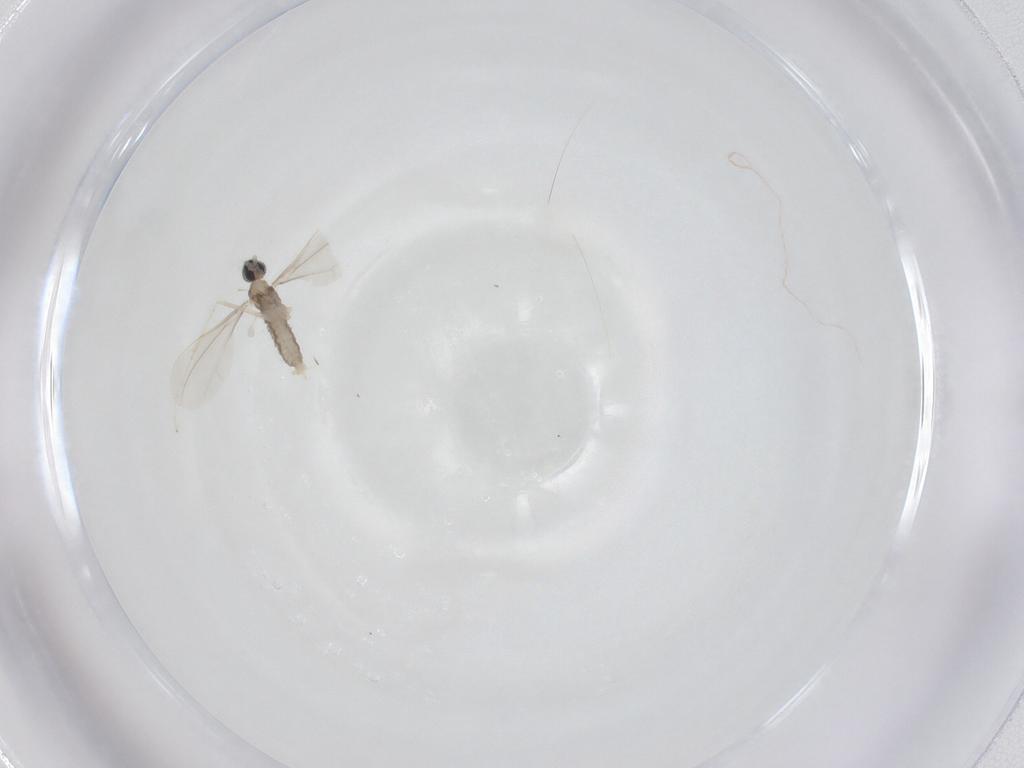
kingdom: Animalia
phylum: Arthropoda
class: Insecta
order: Diptera
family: Cecidomyiidae
